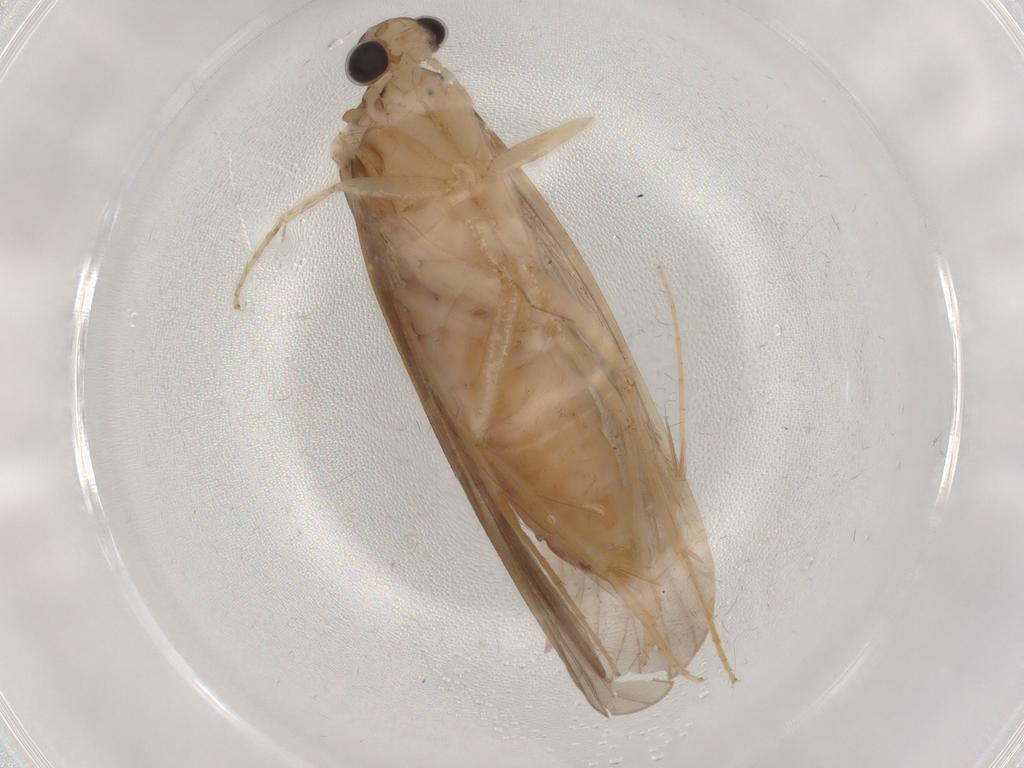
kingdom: Animalia
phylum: Arthropoda
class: Insecta
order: Trichoptera
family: Ecnomidae
